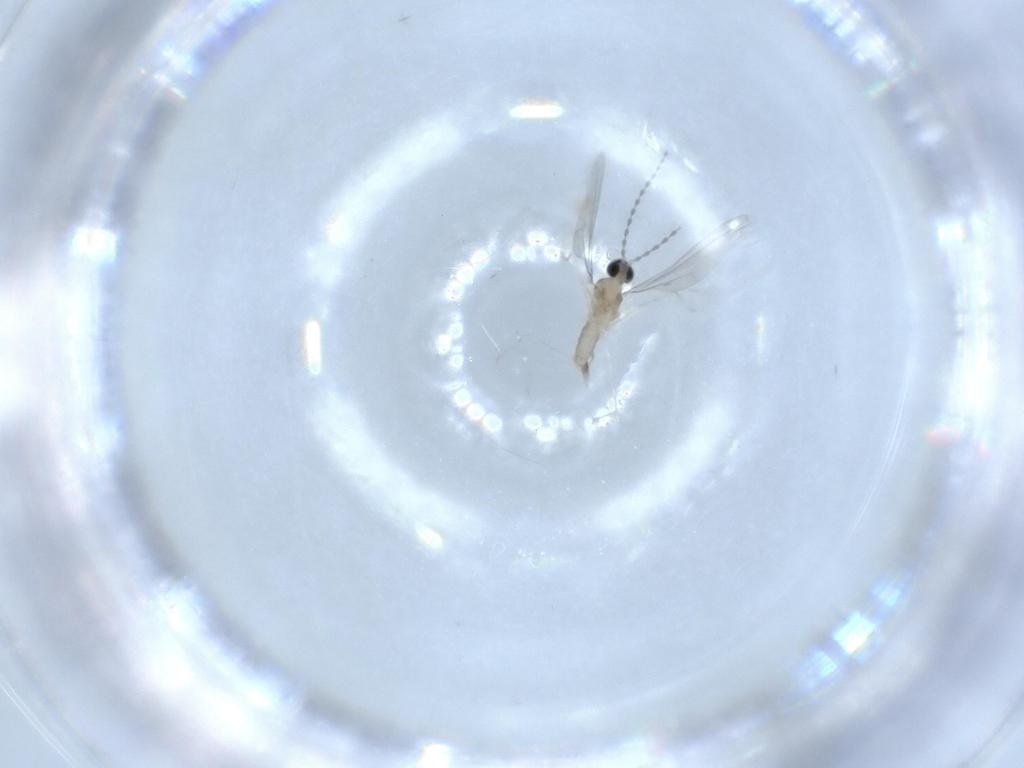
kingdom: Animalia
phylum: Arthropoda
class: Insecta
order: Diptera
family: Cecidomyiidae
